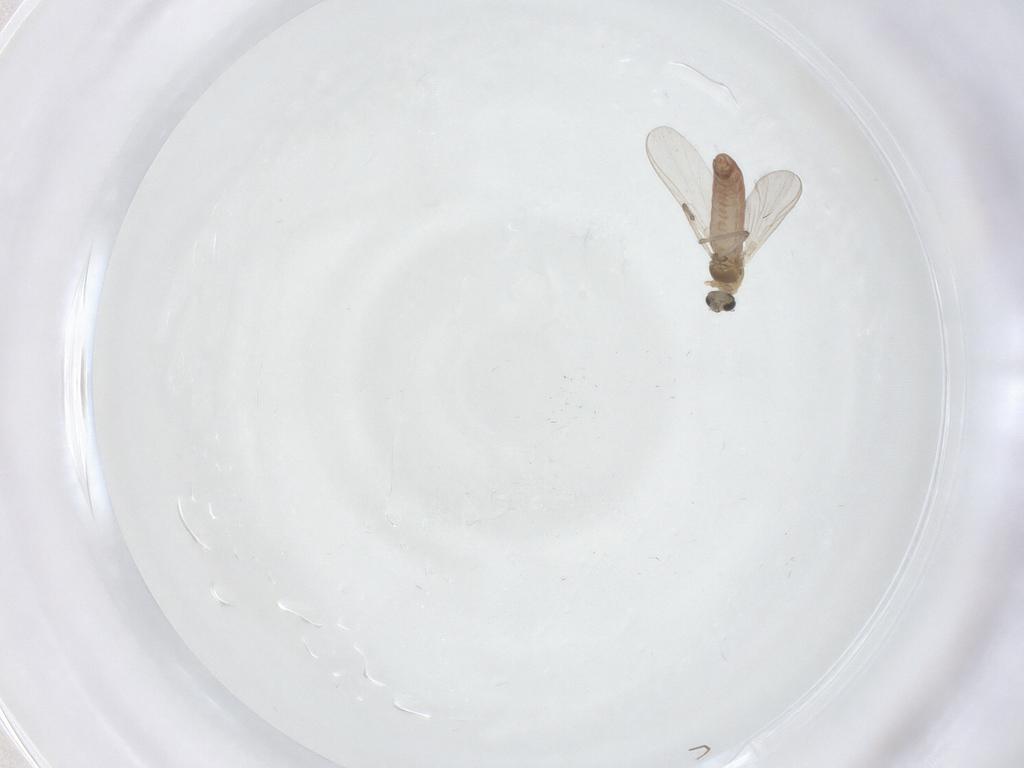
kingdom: Animalia
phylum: Arthropoda
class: Insecta
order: Diptera
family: Chironomidae
